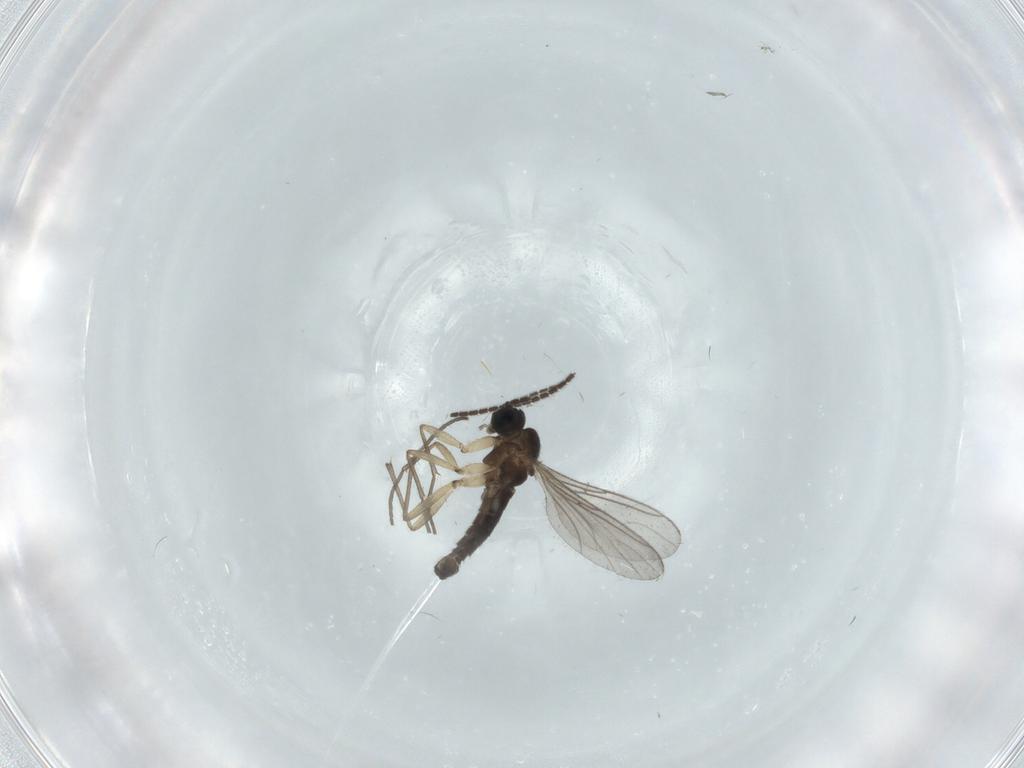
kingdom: Animalia
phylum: Arthropoda
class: Insecta
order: Diptera
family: Sciaridae
